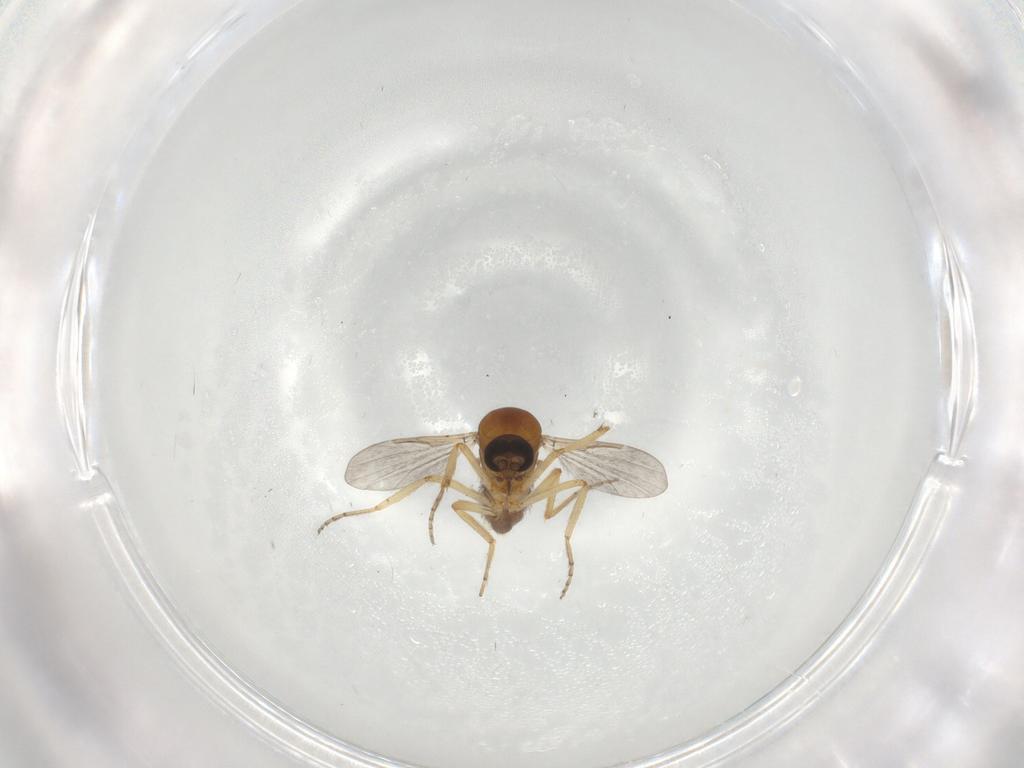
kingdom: Animalia
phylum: Arthropoda
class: Insecta
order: Diptera
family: Ceratopogonidae
